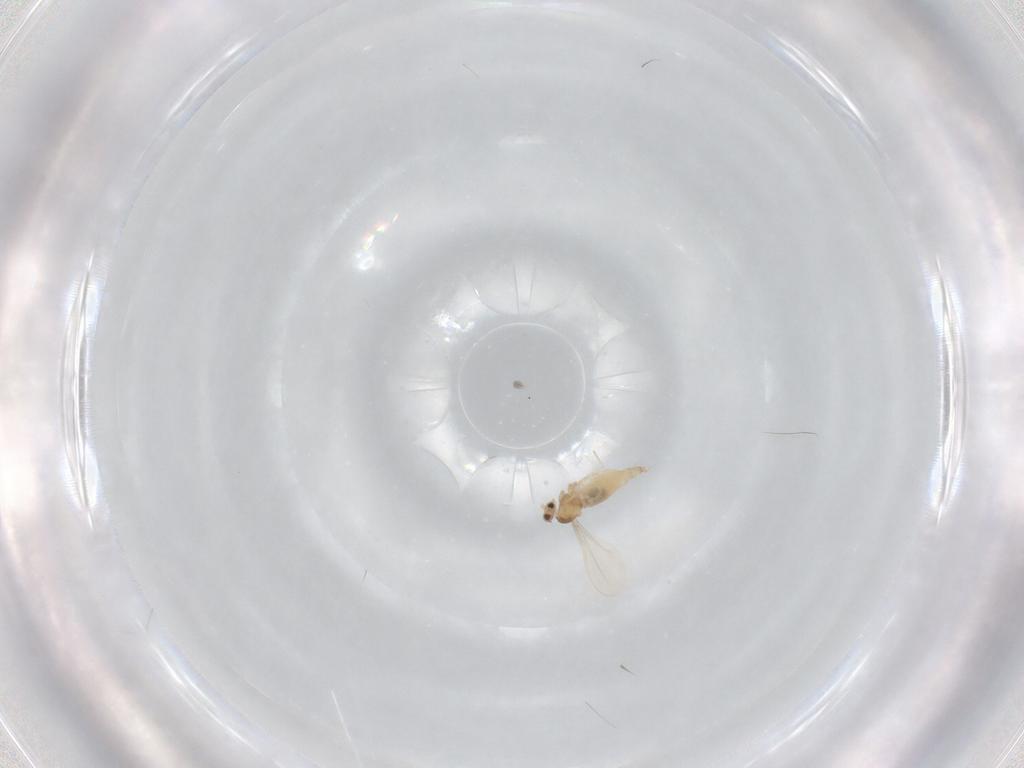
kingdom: Animalia
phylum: Arthropoda
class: Insecta
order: Diptera
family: Cecidomyiidae
